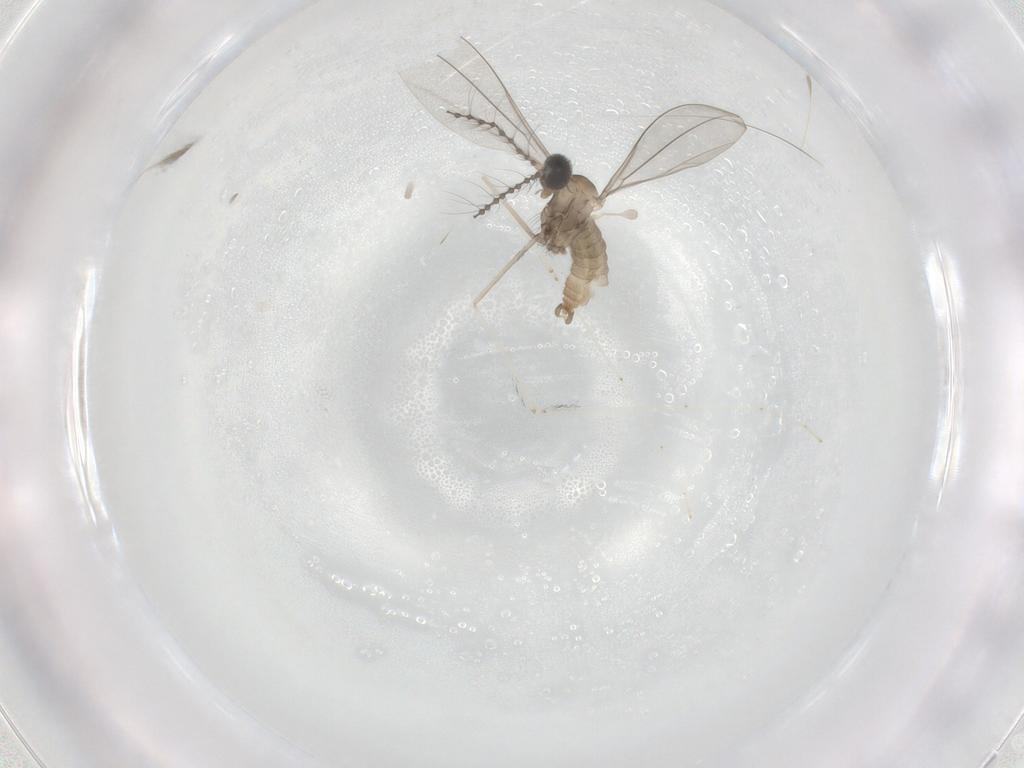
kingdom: Animalia
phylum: Arthropoda
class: Insecta
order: Diptera
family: Cecidomyiidae
